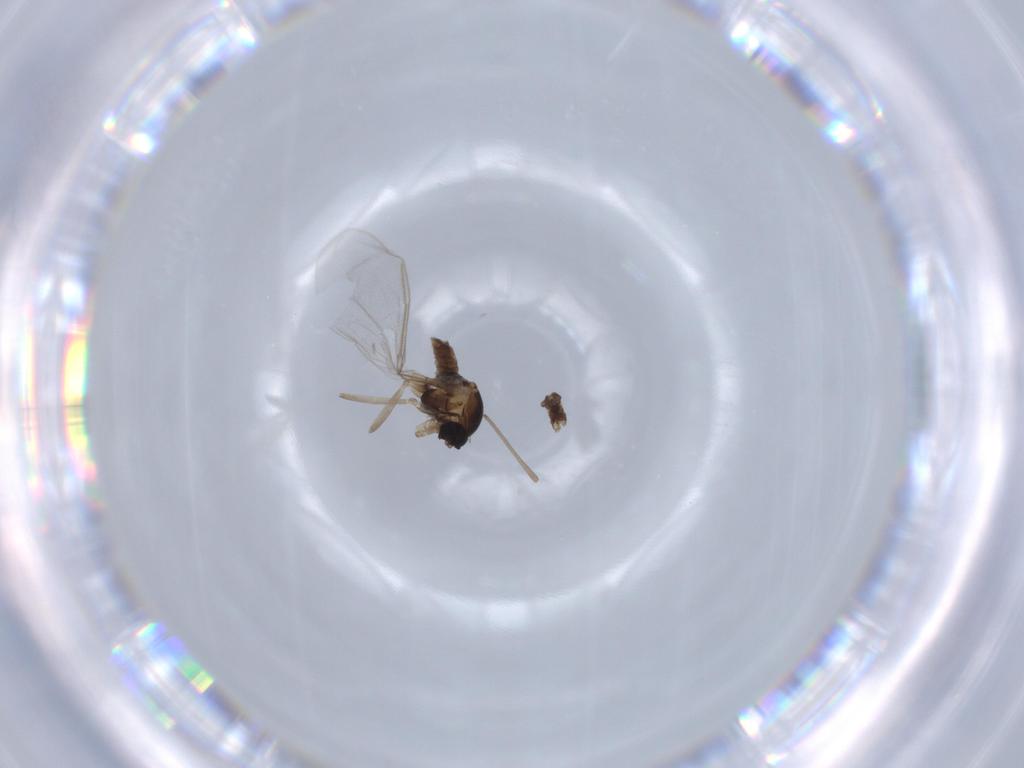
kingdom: Animalia
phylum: Arthropoda
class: Insecta
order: Diptera
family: Cecidomyiidae
